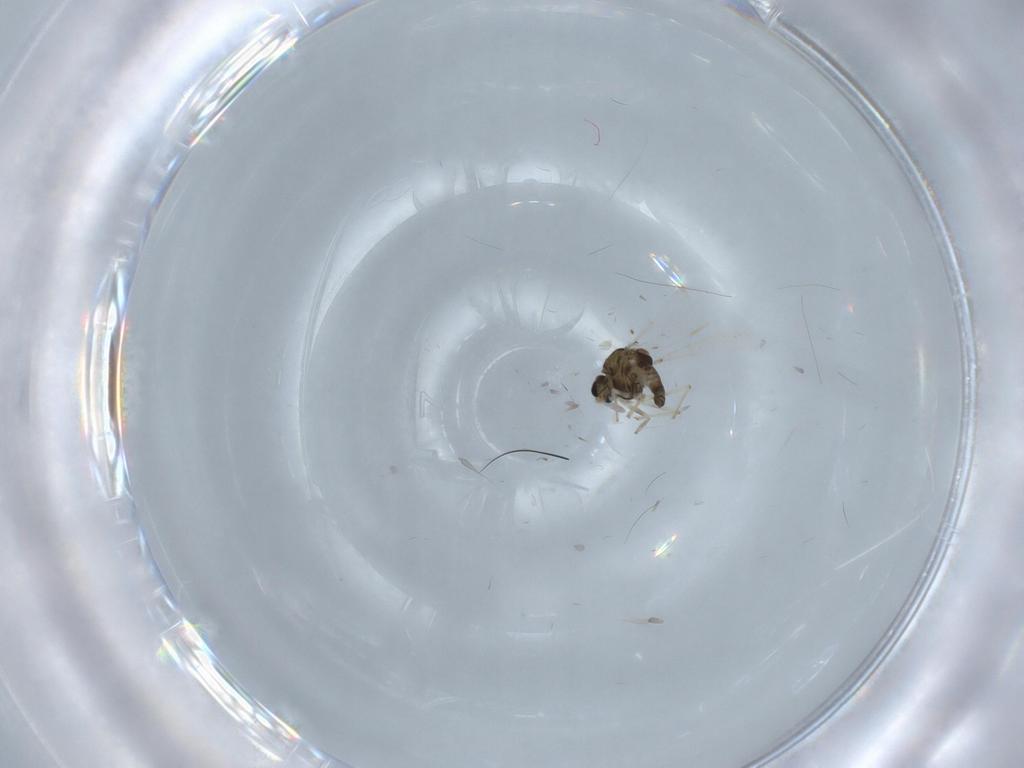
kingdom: Animalia
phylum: Arthropoda
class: Insecta
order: Diptera
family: Chironomidae
